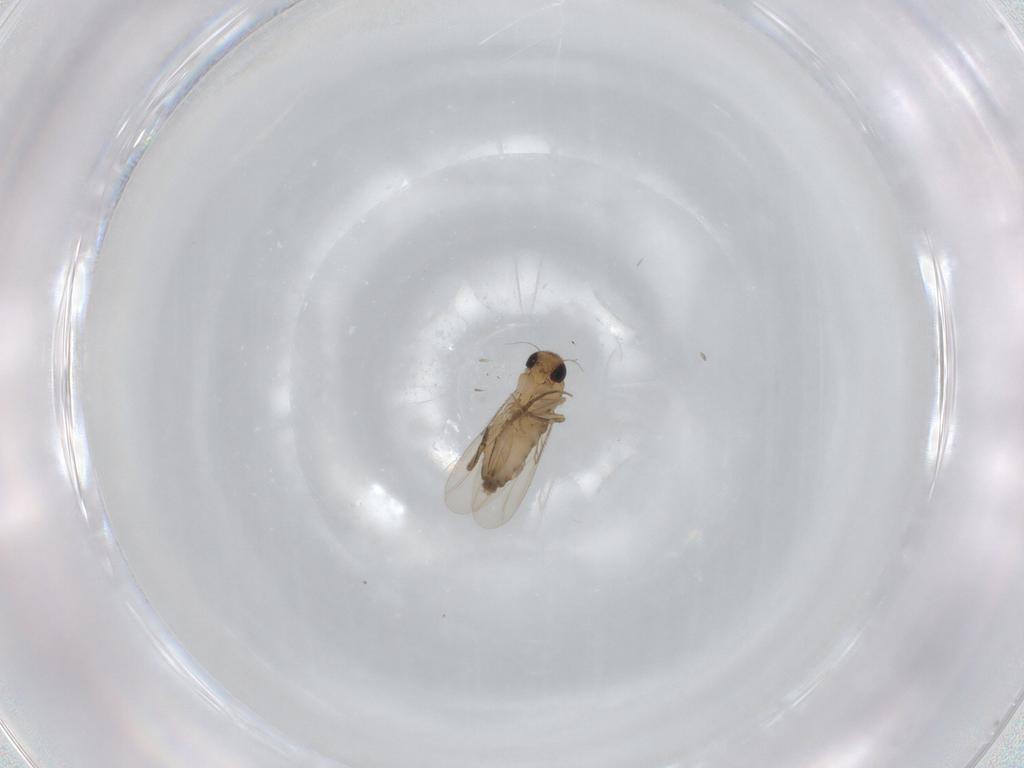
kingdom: Animalia
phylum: Arthropoda
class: Insecta
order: Diptera
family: Phoridae
